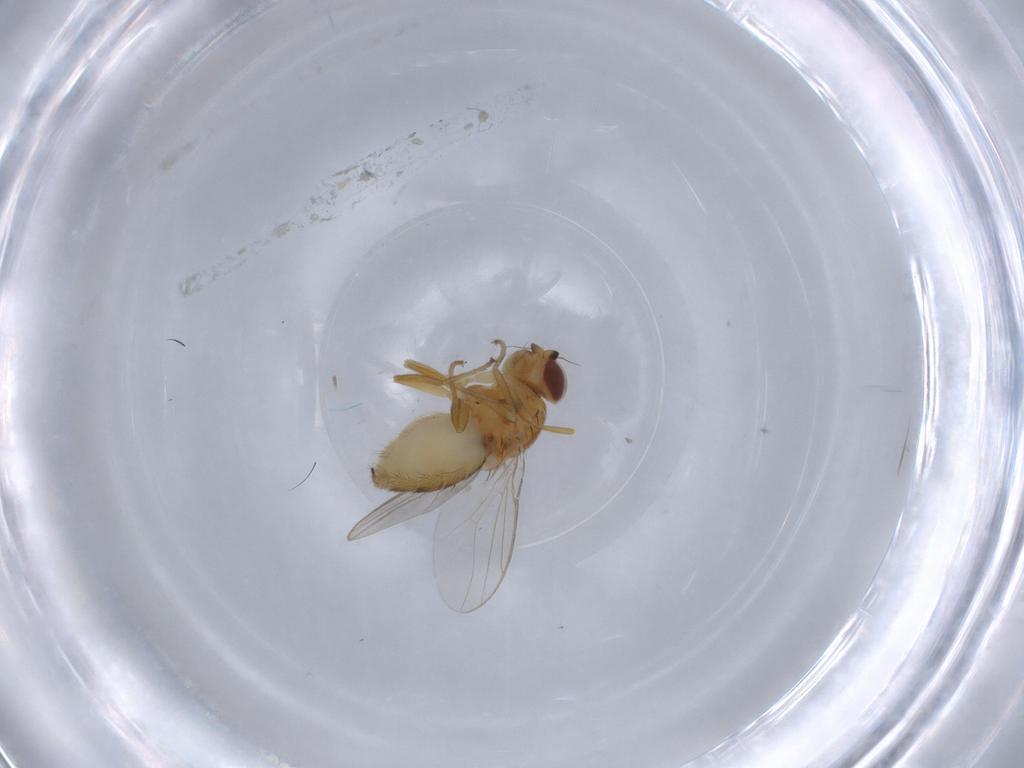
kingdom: Animalia
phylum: Arthropoda
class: Insecta
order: Diptera
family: Chloropidae
